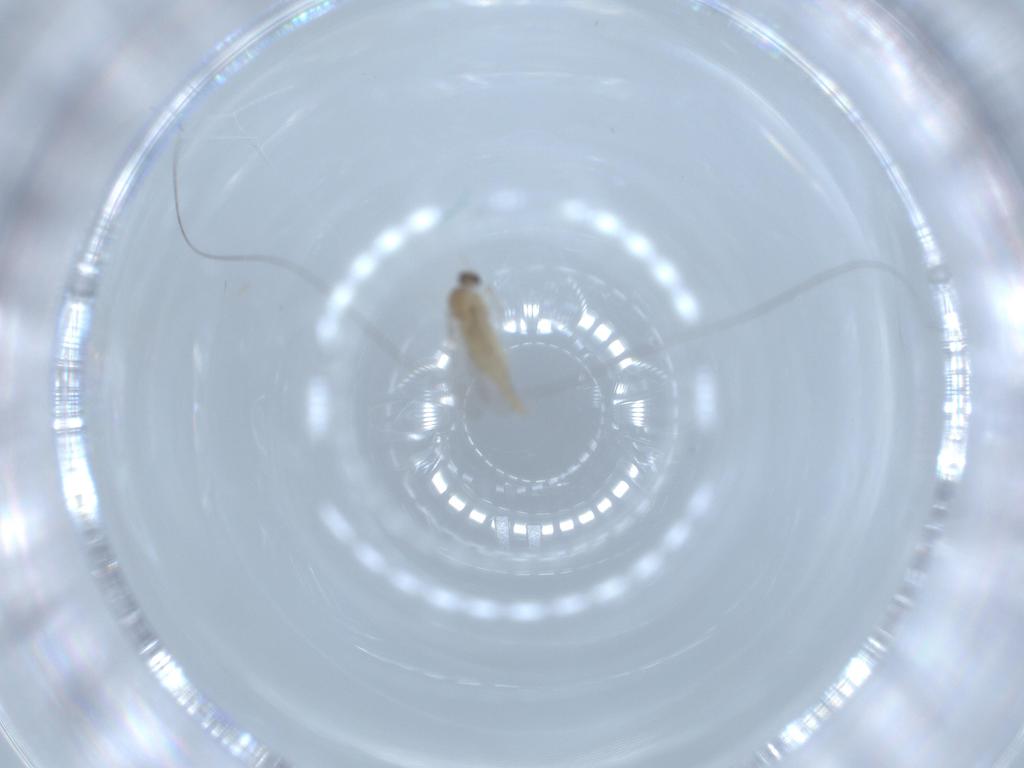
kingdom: Animalia
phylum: Arthropoda
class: Insecta
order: Diptera
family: Cecidomyiidae
